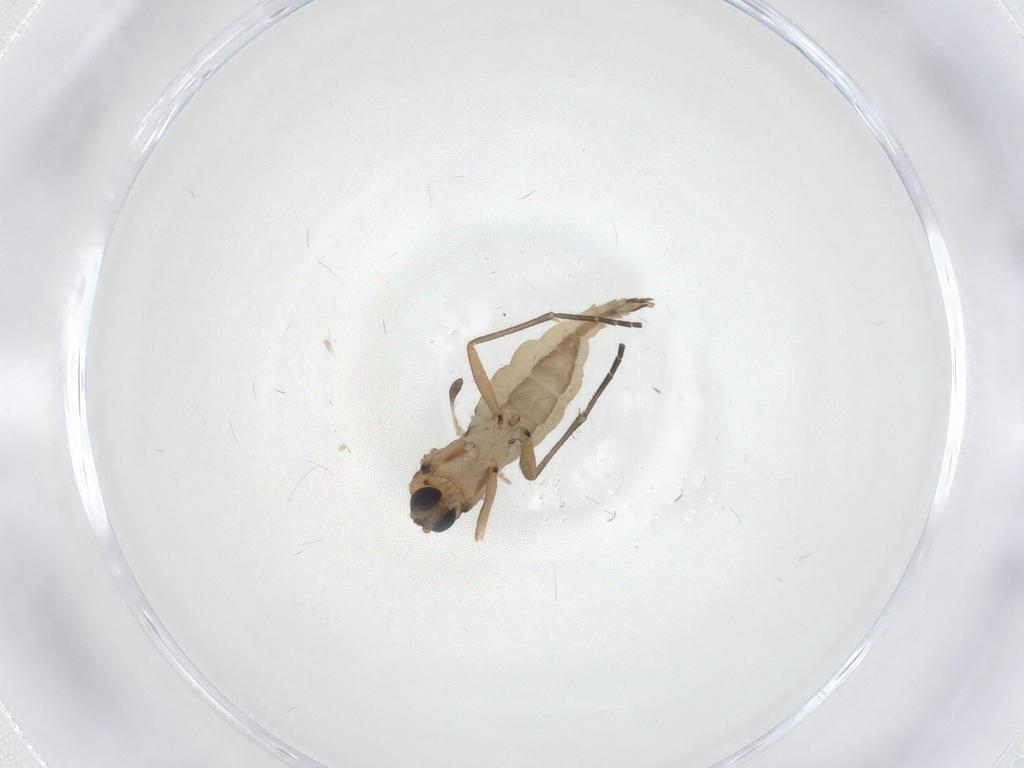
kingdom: Animalia
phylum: Arthropoda
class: Insecta
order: Diptera
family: Sciaridae
